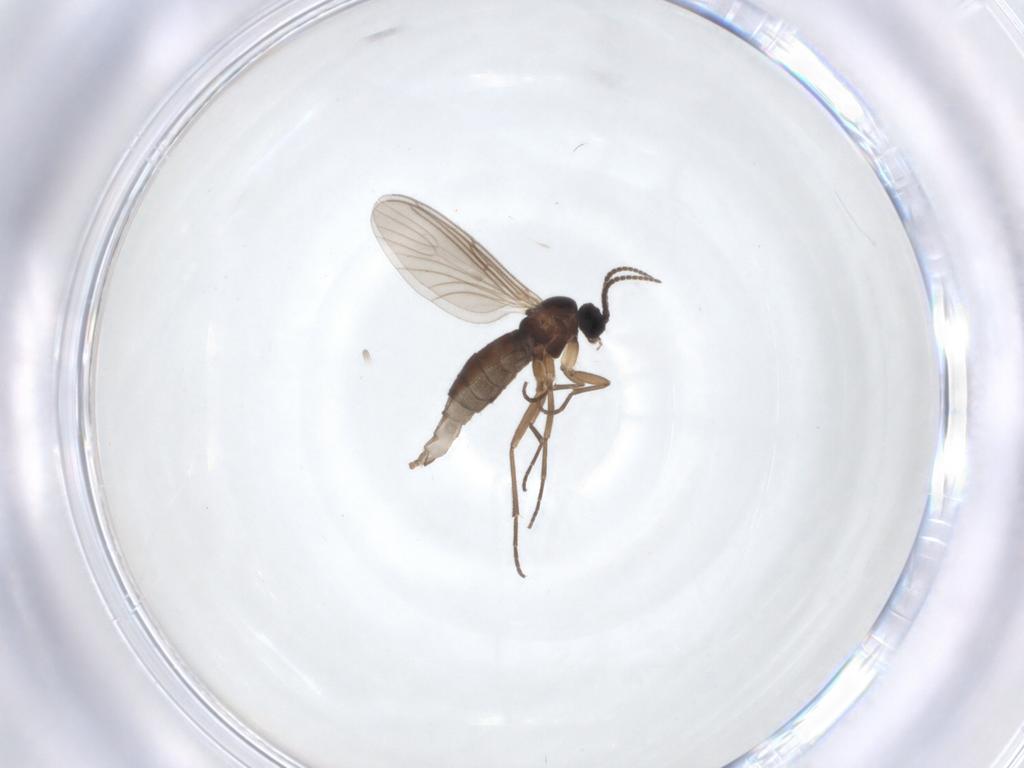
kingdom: Animalia
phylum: Arthropoda
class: Insecta
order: Diptera
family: Sciaridae
